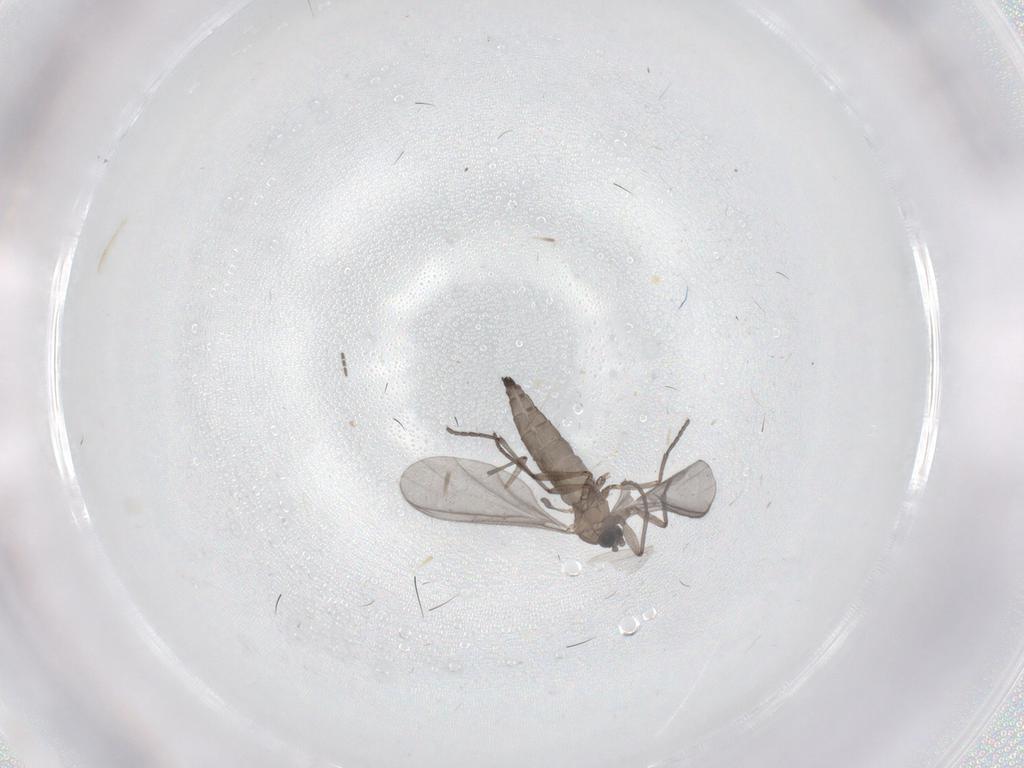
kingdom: Animalia
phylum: Arthropoda
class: Insecta
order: Diptera
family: Sciaridae
